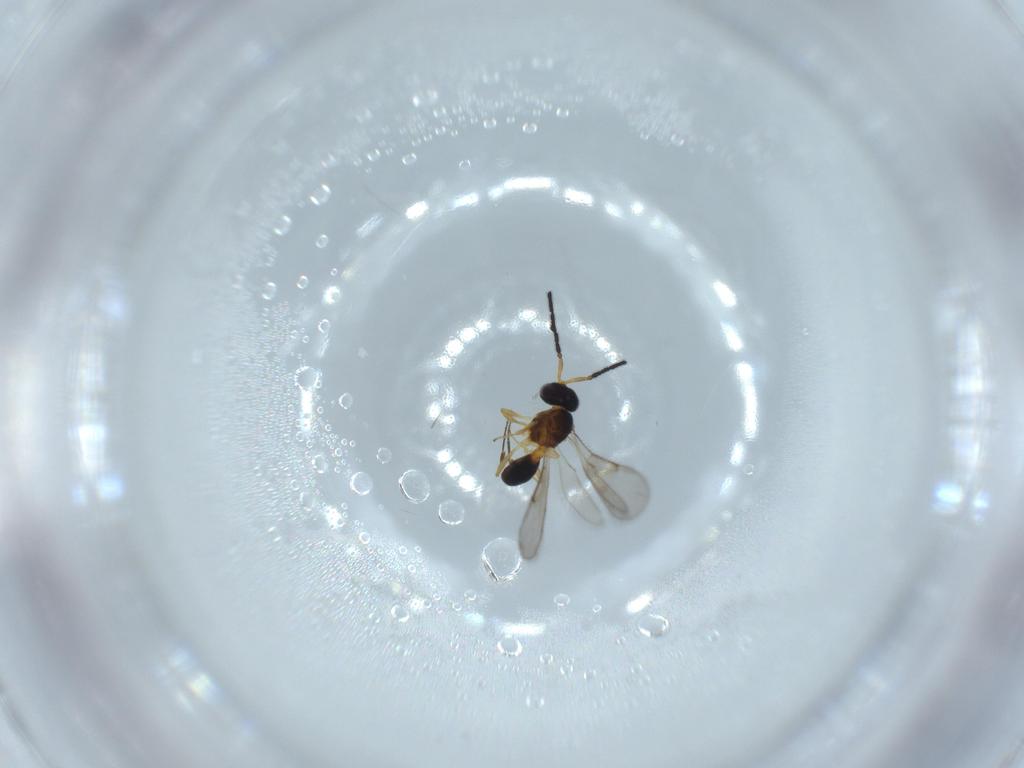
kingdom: Animalia
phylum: Arthropoda
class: Insecta
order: Hymenoptera
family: Scelionidae
